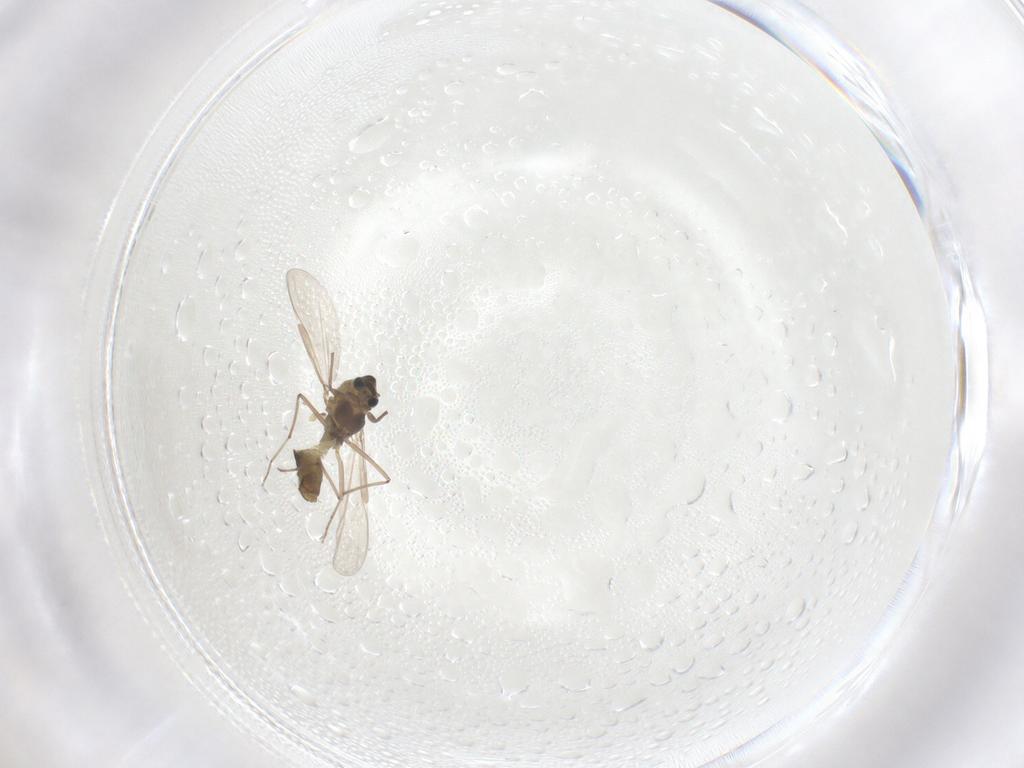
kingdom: Animalia
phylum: Arthropoda
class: Insecta
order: Diptera
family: Chironomidae
